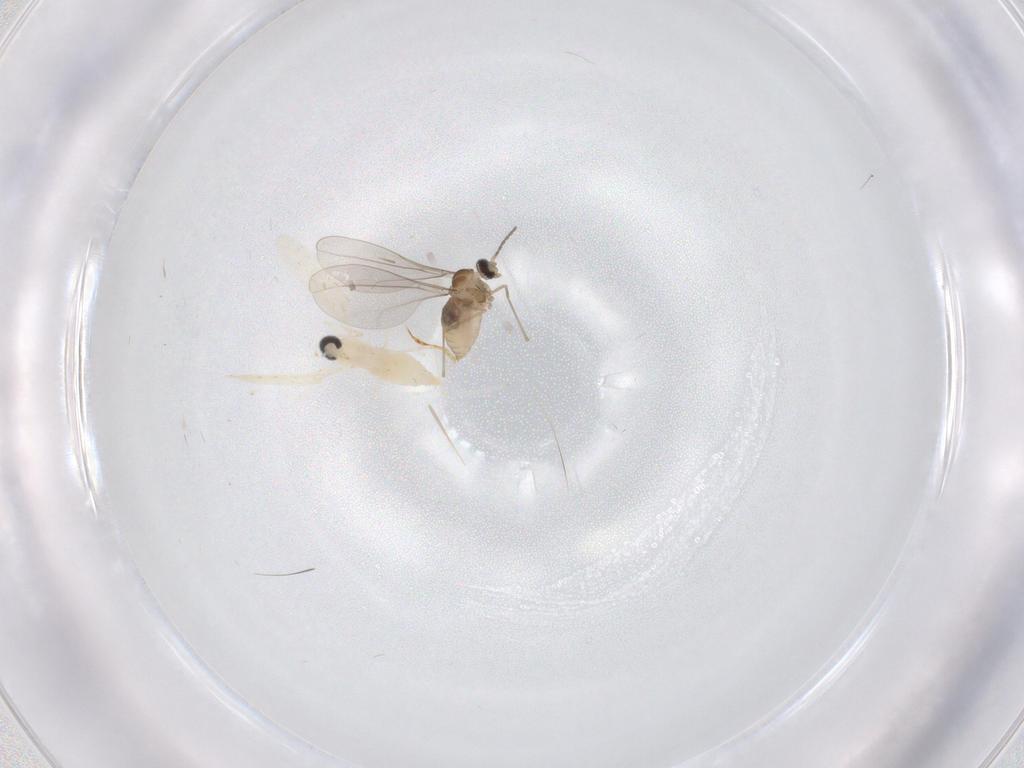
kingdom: Animalia
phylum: Arthropoda
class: Insecta
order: Diptera
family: Cecidomyiidae
